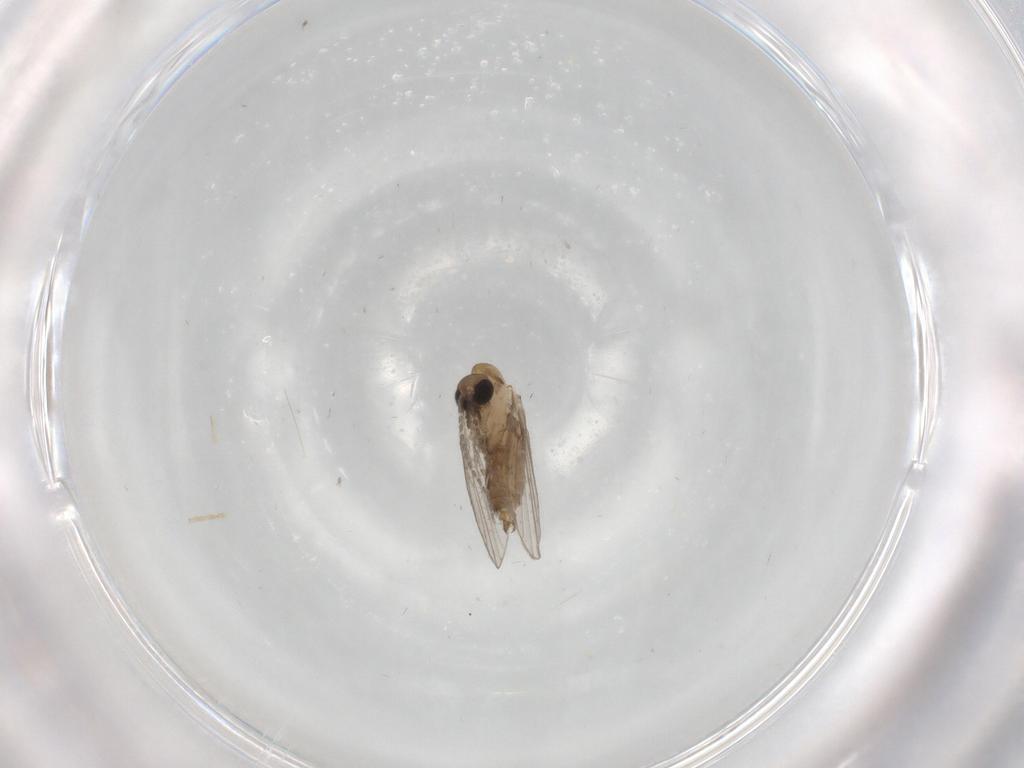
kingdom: Animalia
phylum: Arthropoda
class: Insecta
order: Diptera
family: Psychodidae
